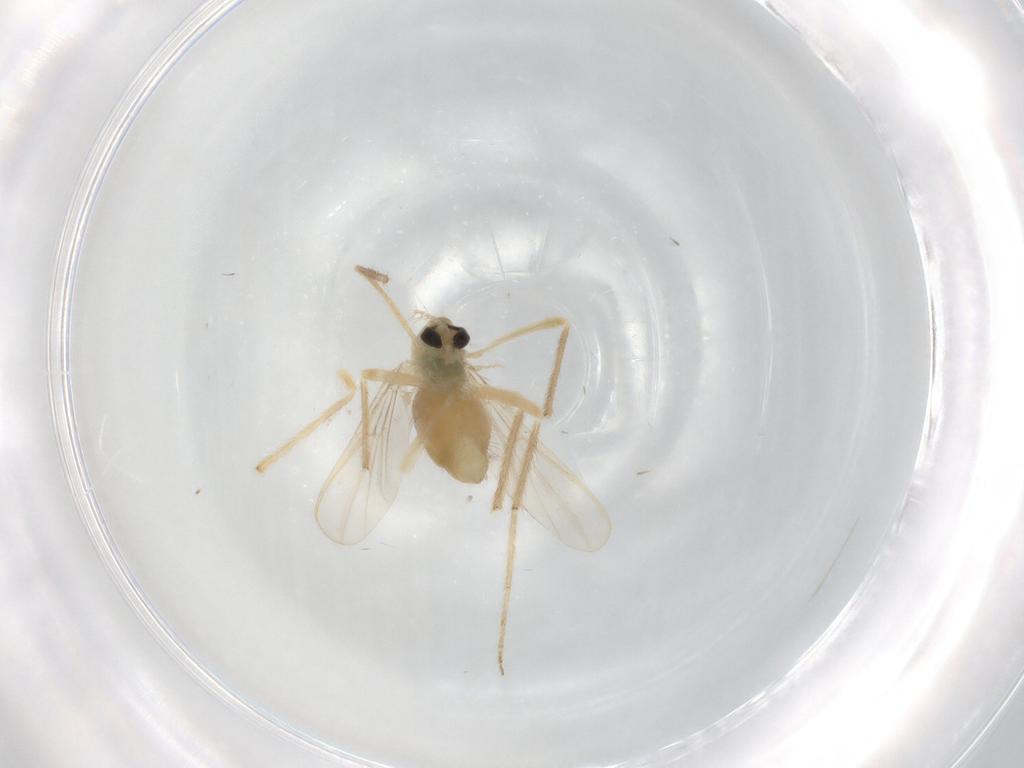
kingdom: Animalia
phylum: Arthropoda
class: Insecta
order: Diptera
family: Chironomidae
